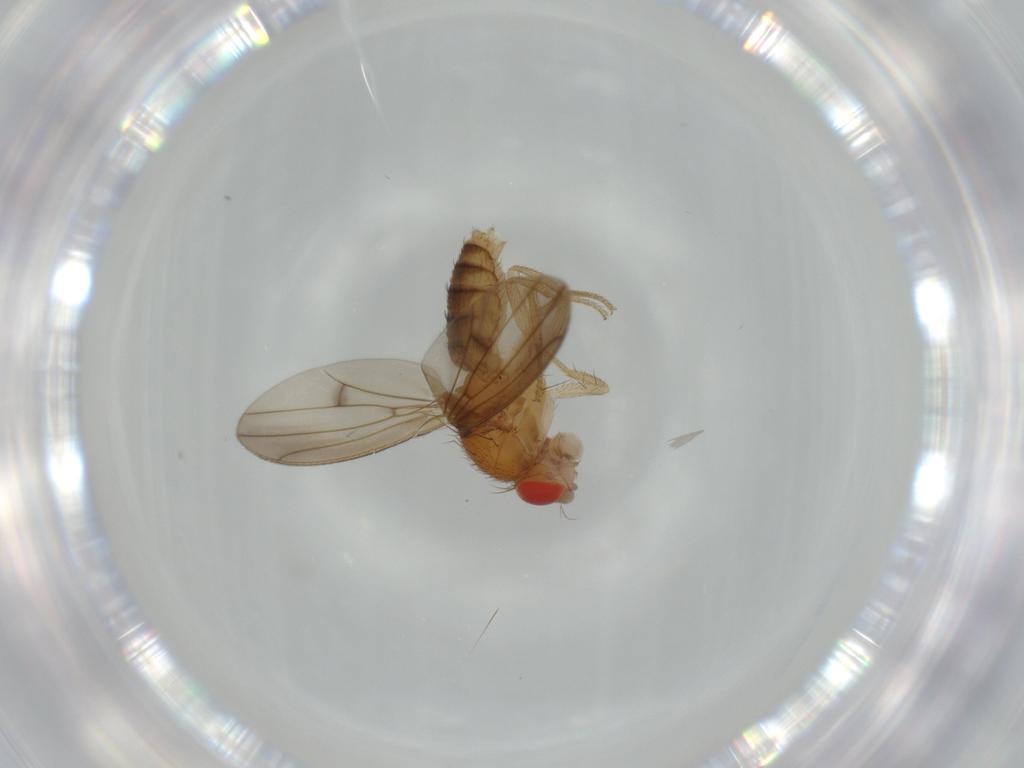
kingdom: Animalia
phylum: Arthropoda
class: Insecta
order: Diptera
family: Drosophilidae
